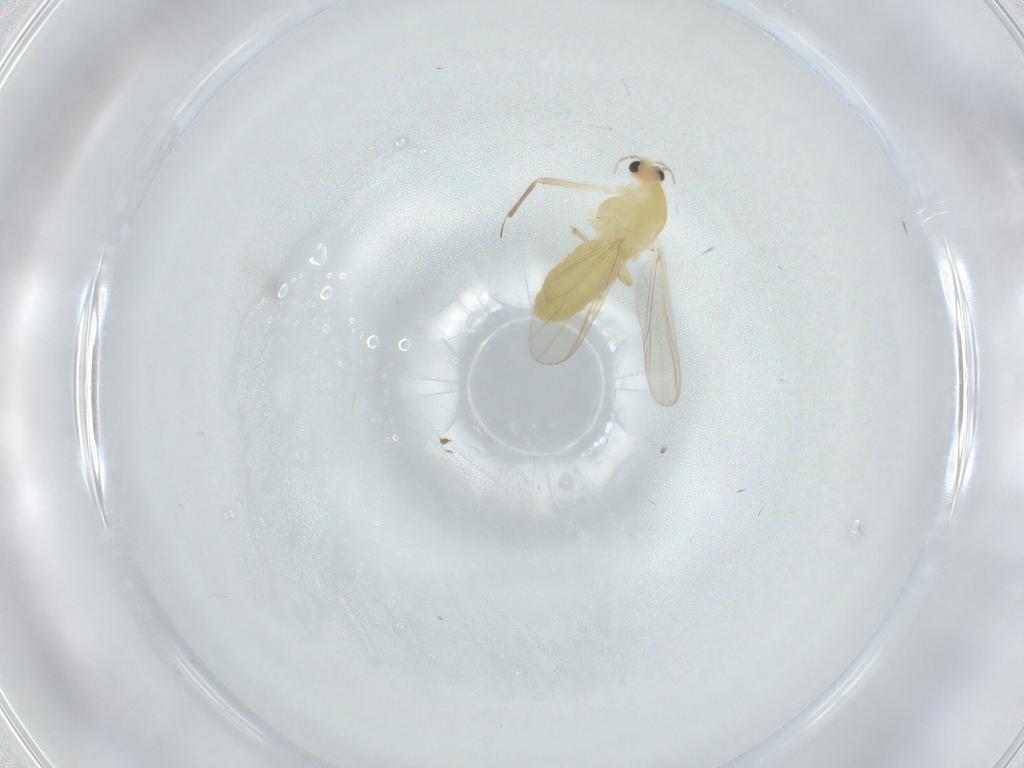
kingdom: Animalia
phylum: Arthropoda
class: Insecta
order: Diptera
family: Chironomidae
